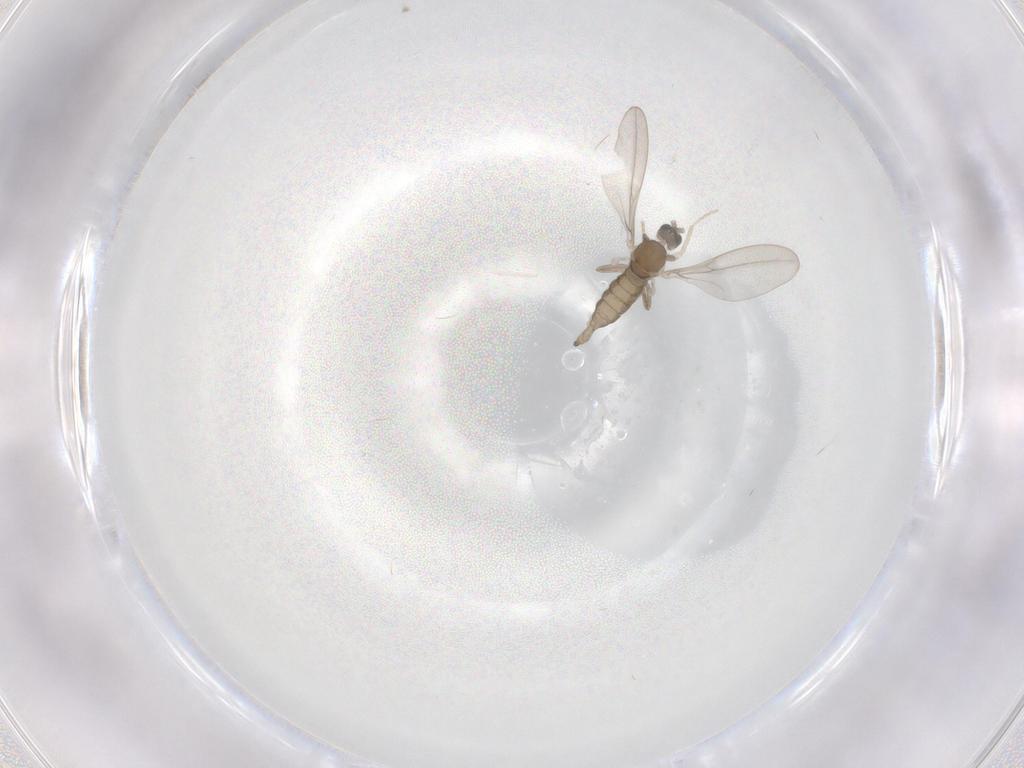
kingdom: Animalia
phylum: Arthropoda
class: Insecta
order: Diptera
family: Cecidomyiidae
